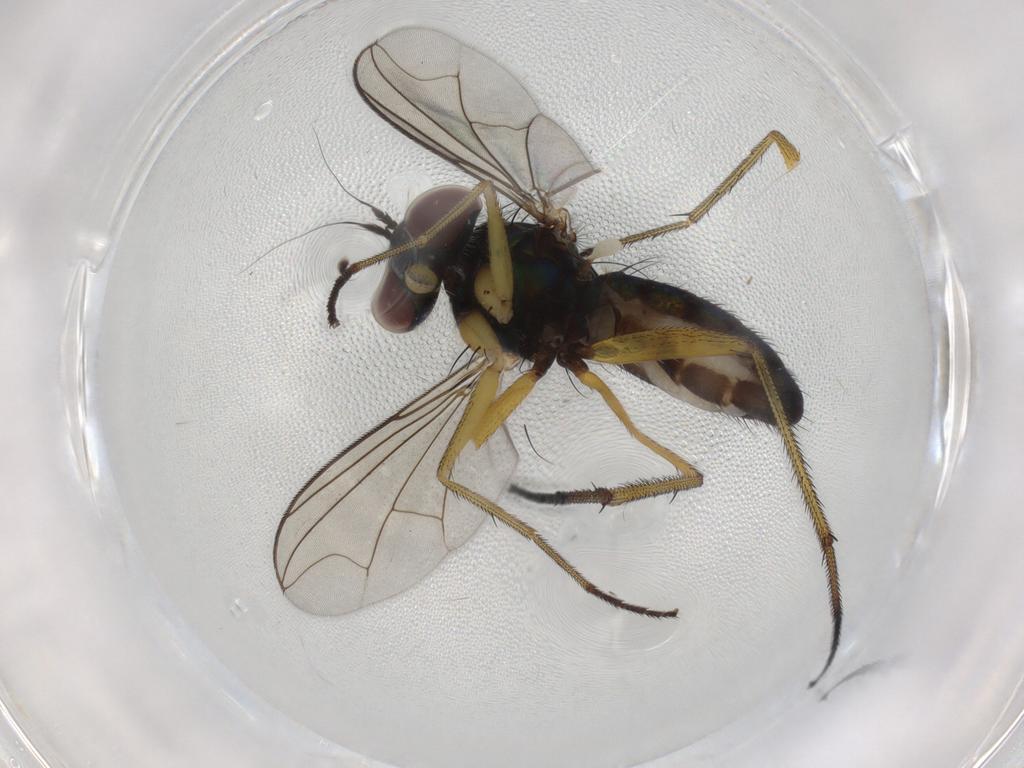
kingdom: Animalia
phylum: Arthropoda
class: Insecta
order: Diptera
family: Dolichopodidae
